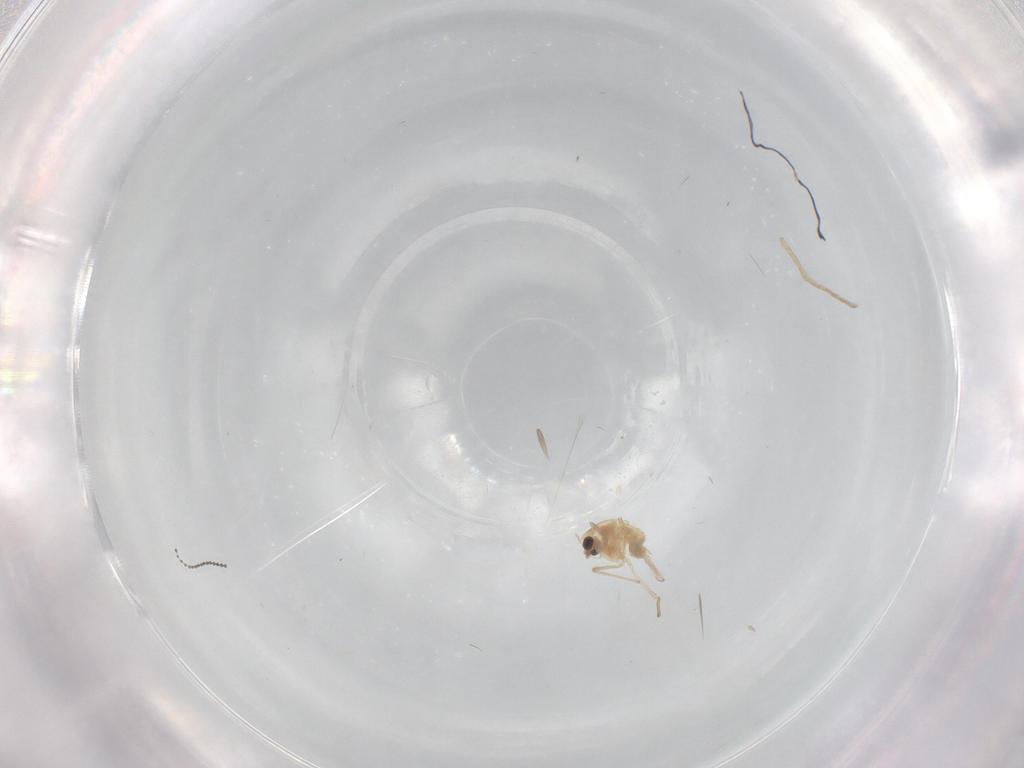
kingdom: Animalia
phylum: Arthropoda
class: Insecta
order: Diptera
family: Cecidomyiidae
